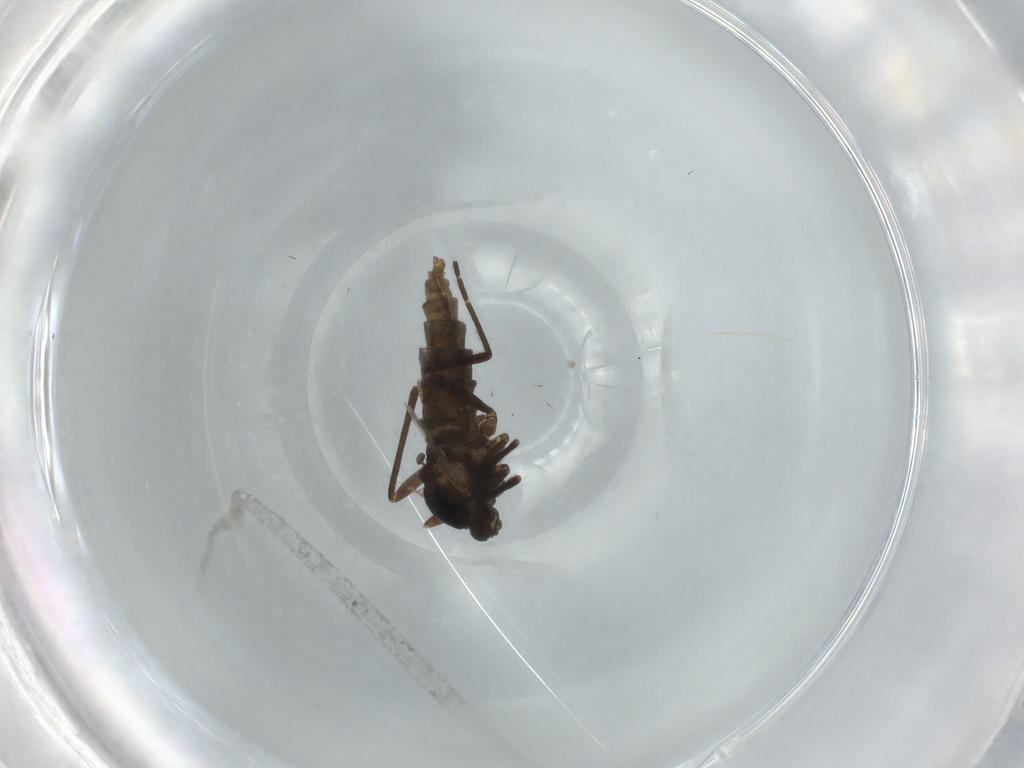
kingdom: Animalia
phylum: Arthropoda
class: Insecta
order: Diptera
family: Cecidomyiidae
